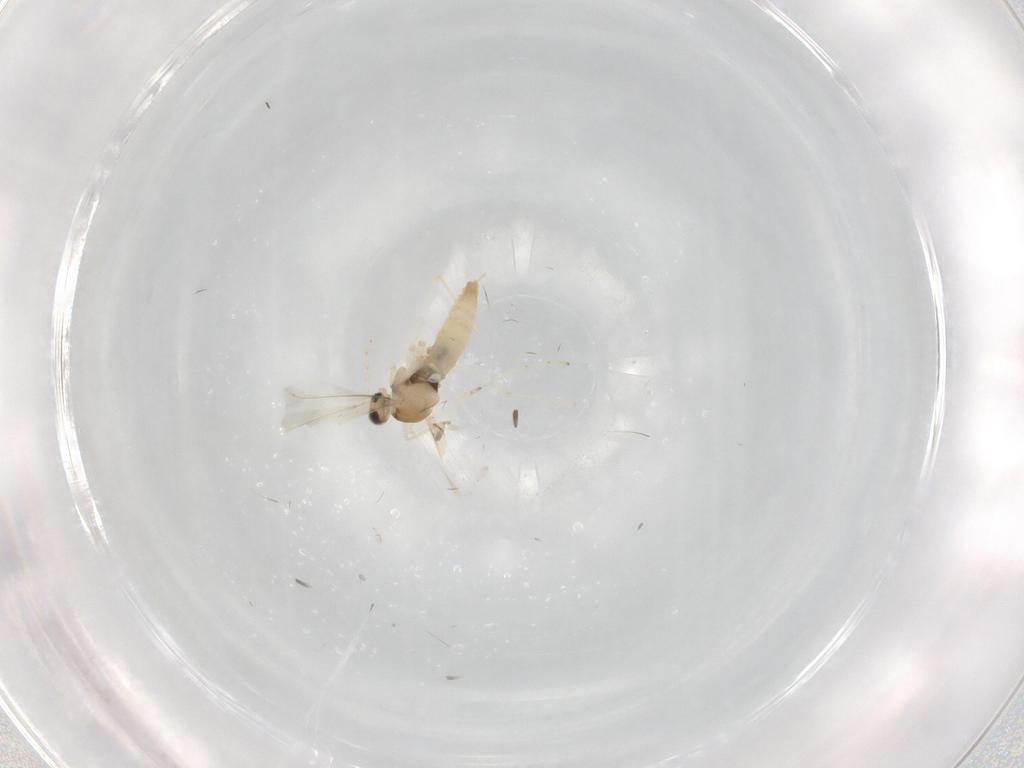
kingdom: Animalia
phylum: Arthropoda
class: Insecta
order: Diptera
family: Cecidomyiidae
